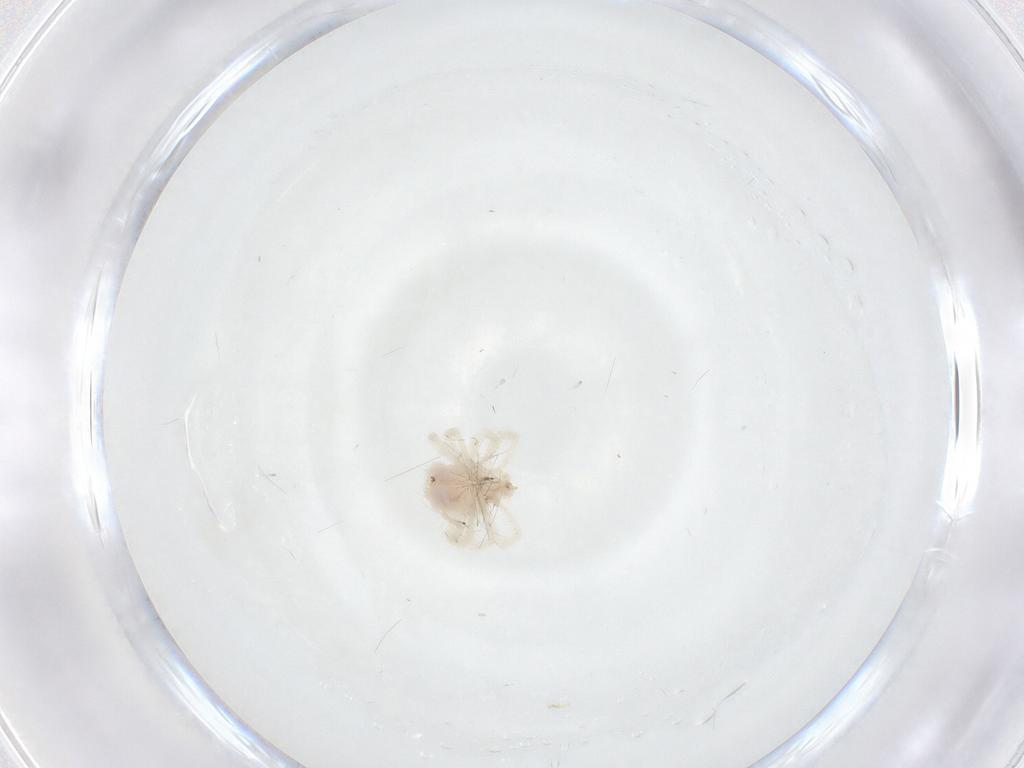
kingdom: Animalia
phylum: Arthropoda
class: Arachnida
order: Trombidiformes
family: Anystidae
